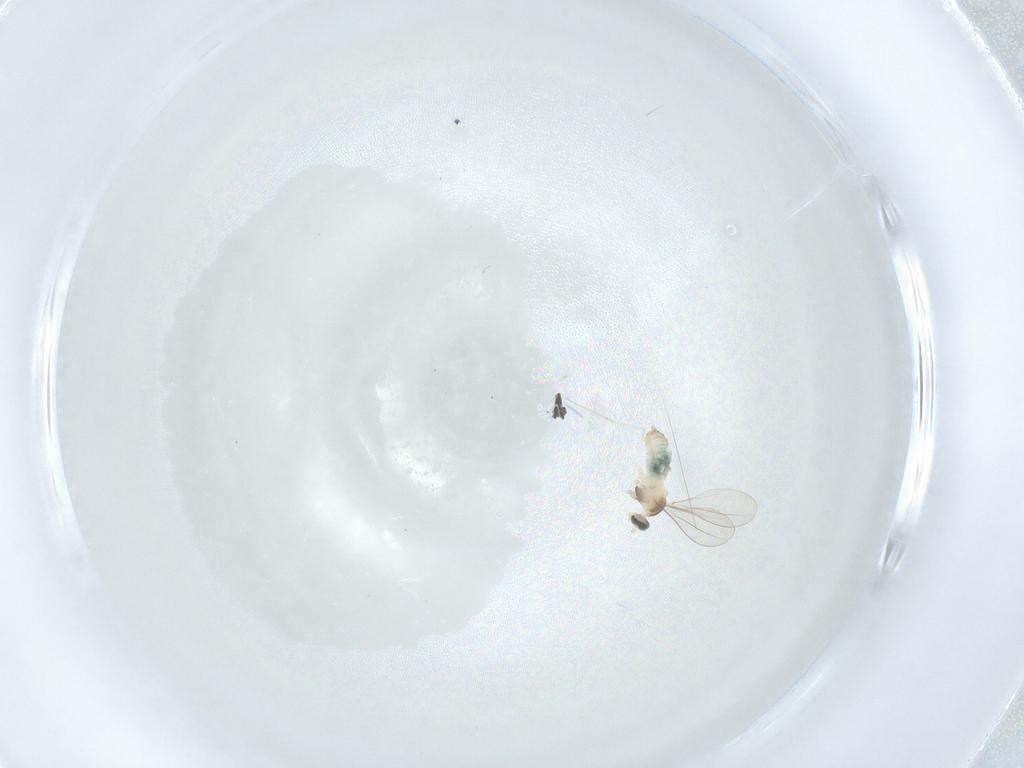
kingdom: Animalia
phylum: Arthropoda
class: Insecta
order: Diptera
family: Cecidomyiidae
